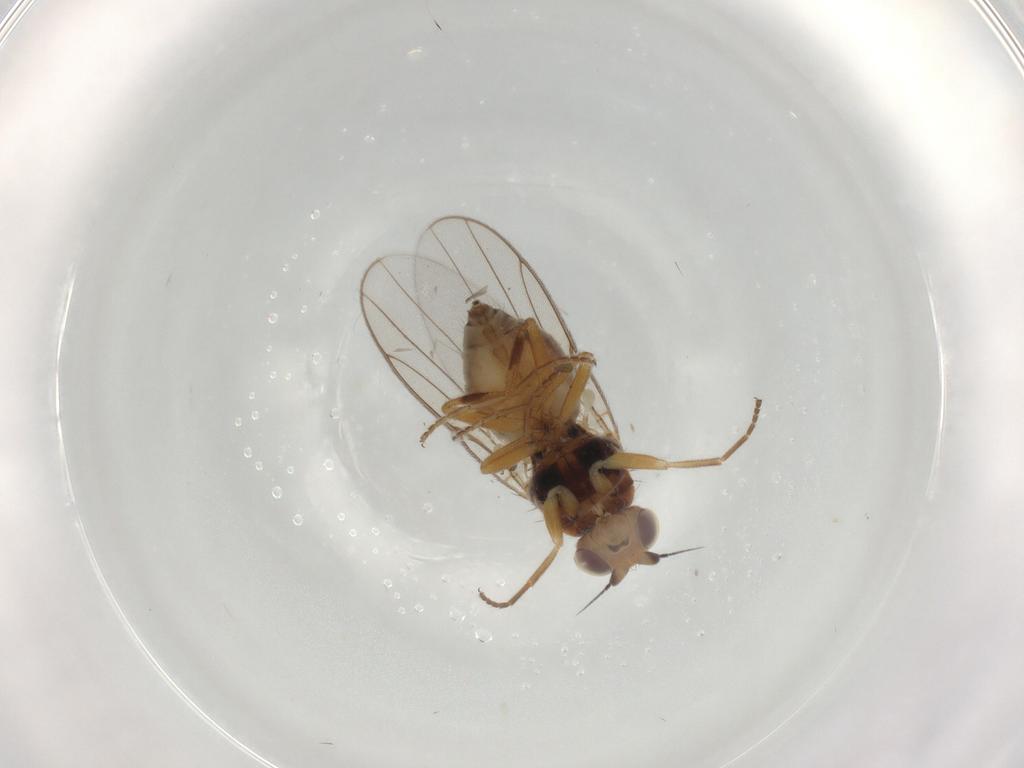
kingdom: Animalia
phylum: Arthropoda
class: Insecta
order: Diptera
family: Chloropidae
